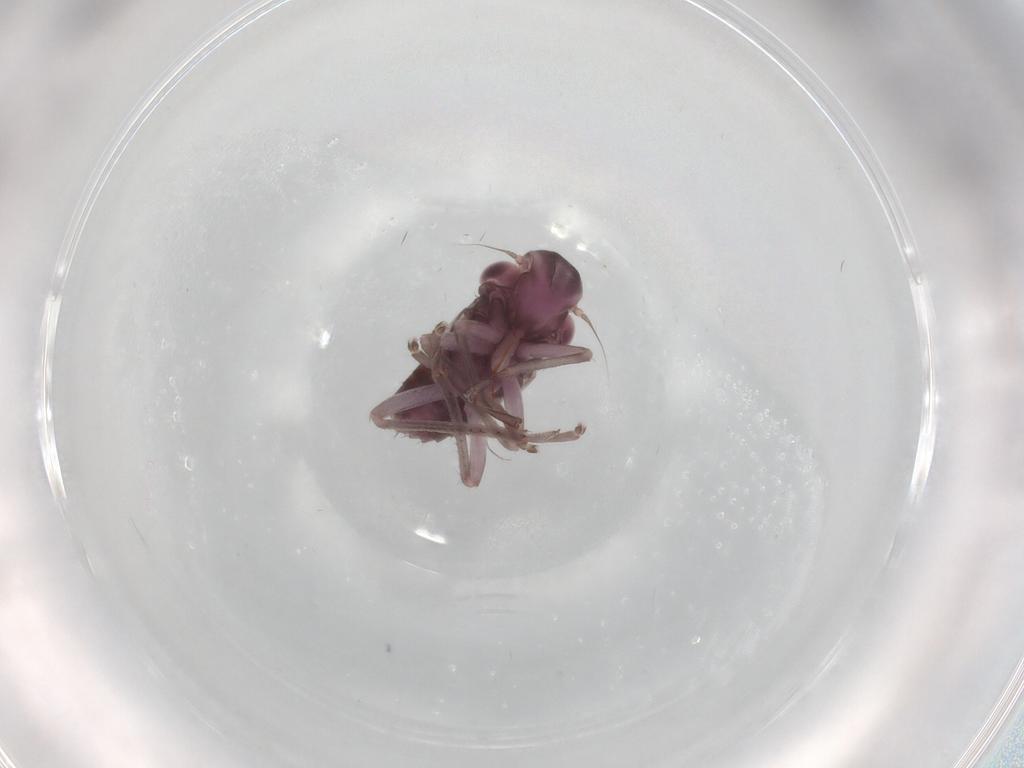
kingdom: Animalia
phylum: Arthropoda
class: Insecta
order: Hemiptera
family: Cicadellidae
